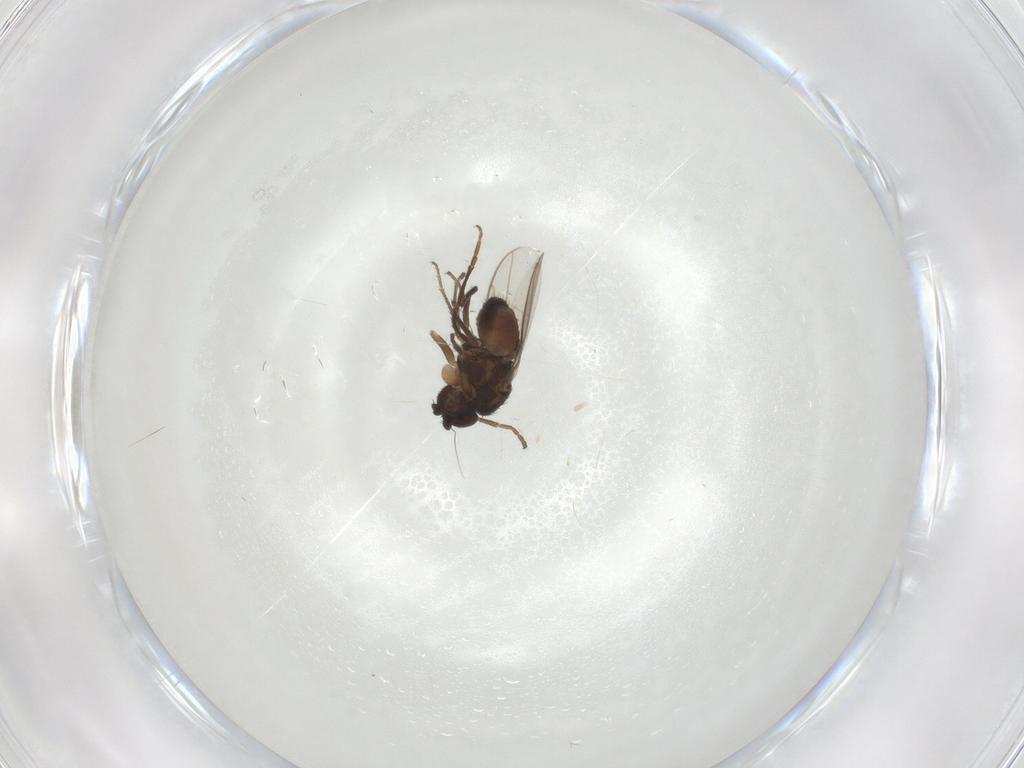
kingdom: Animalia
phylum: Arthropoda
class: Insecta
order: Diptera
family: Sphaeroceridae
